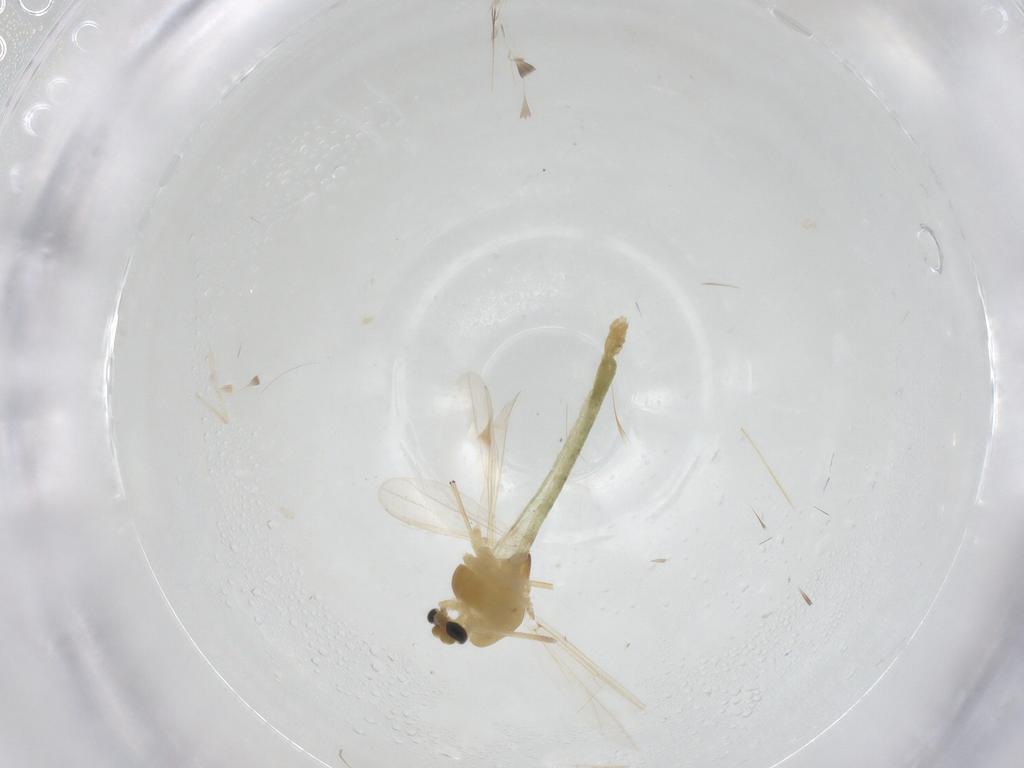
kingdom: Animalia
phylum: Arthropoda
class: Insecta
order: Diptera
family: Chironomidae
